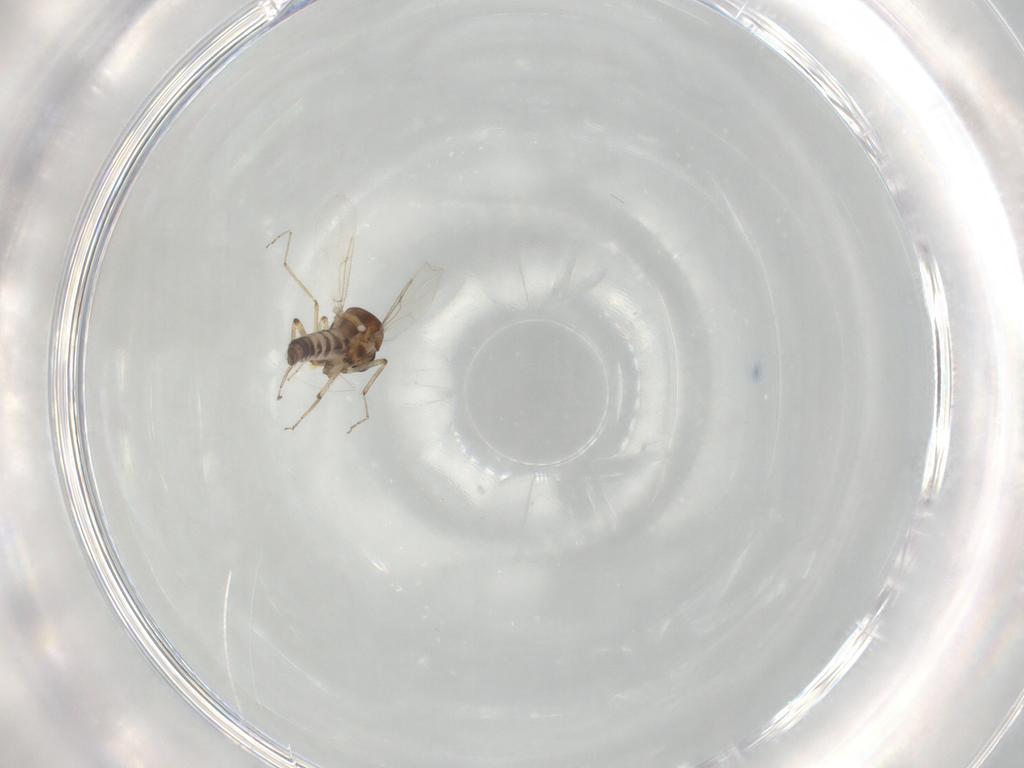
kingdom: Animalia
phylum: Arthropoda
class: Insecta
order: Diptera
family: Ceratopogonidae
